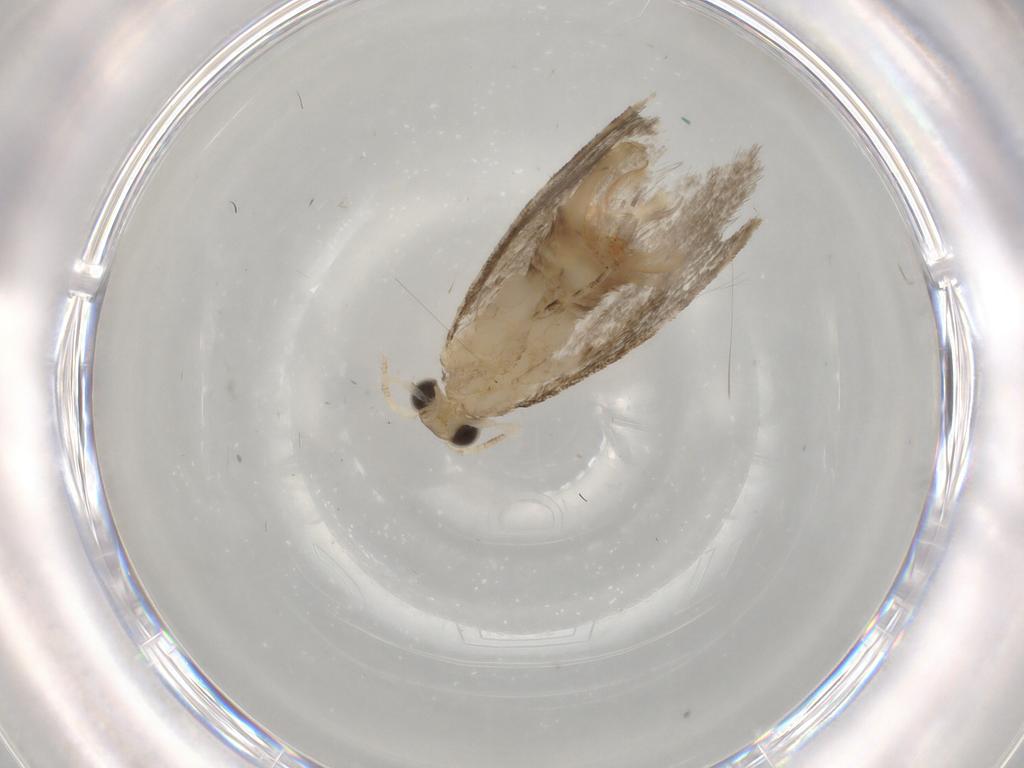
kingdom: Animalia
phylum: Arthropoda
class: Insecta
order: Lepidoptera
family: Tineidae
